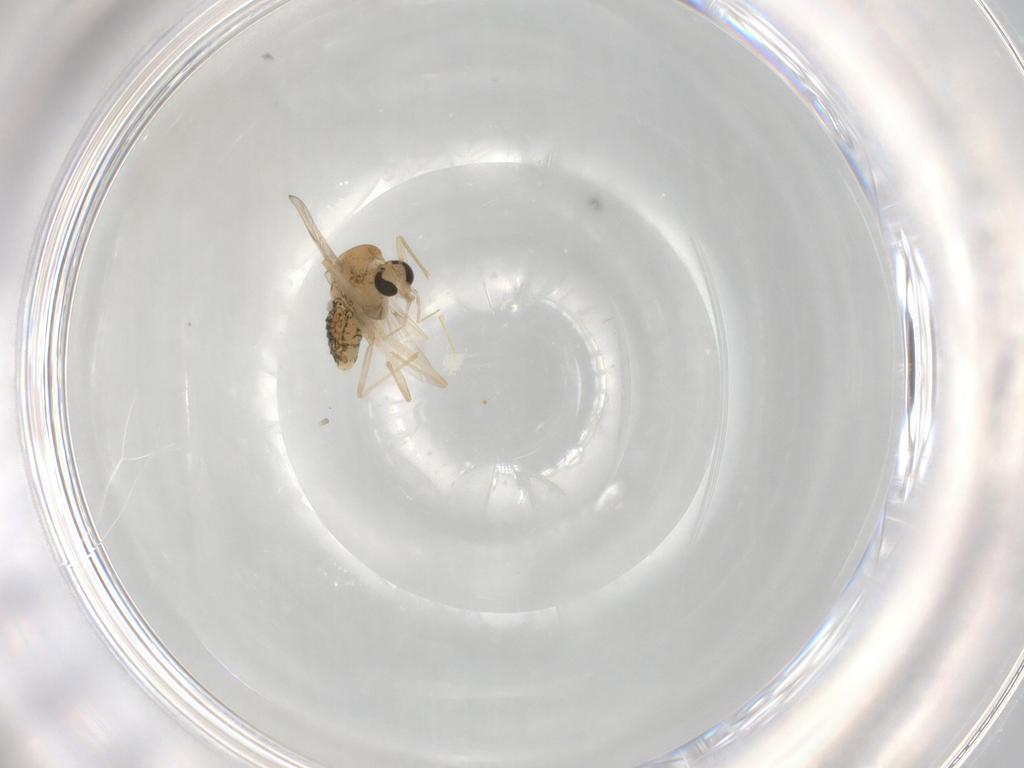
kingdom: Animalia
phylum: Arthropoda
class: Insecta
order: Diptera
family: Chironomidae
